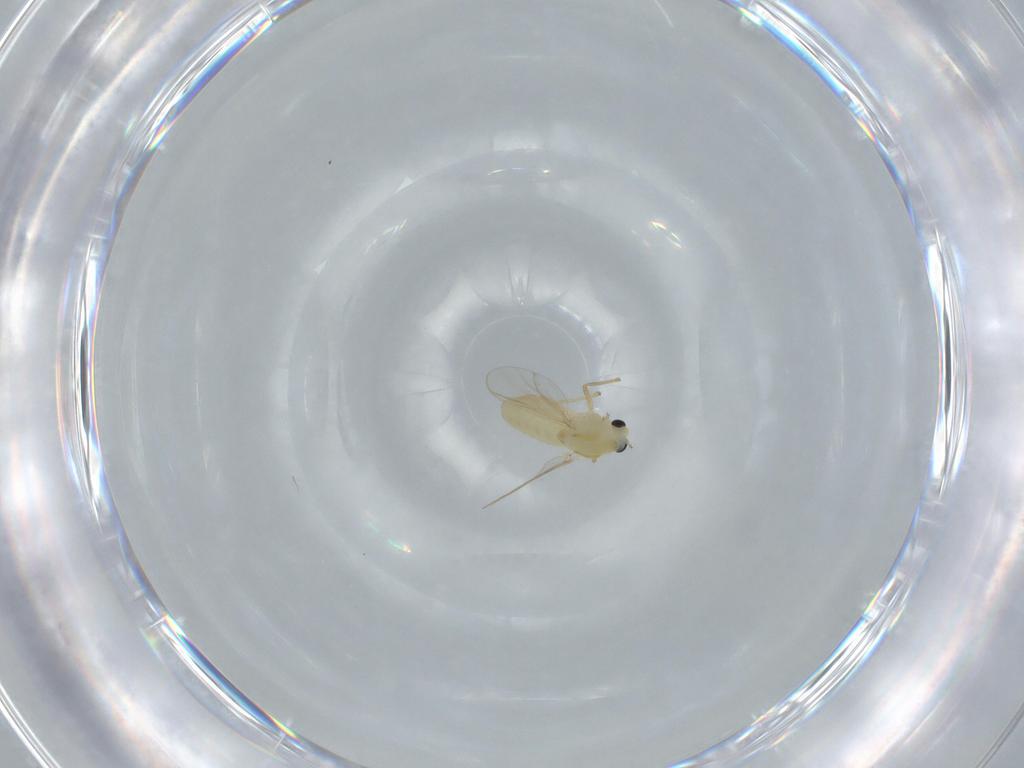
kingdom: Animalia
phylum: Arthropoda
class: Insecta
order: Diptera
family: Chironomidae
